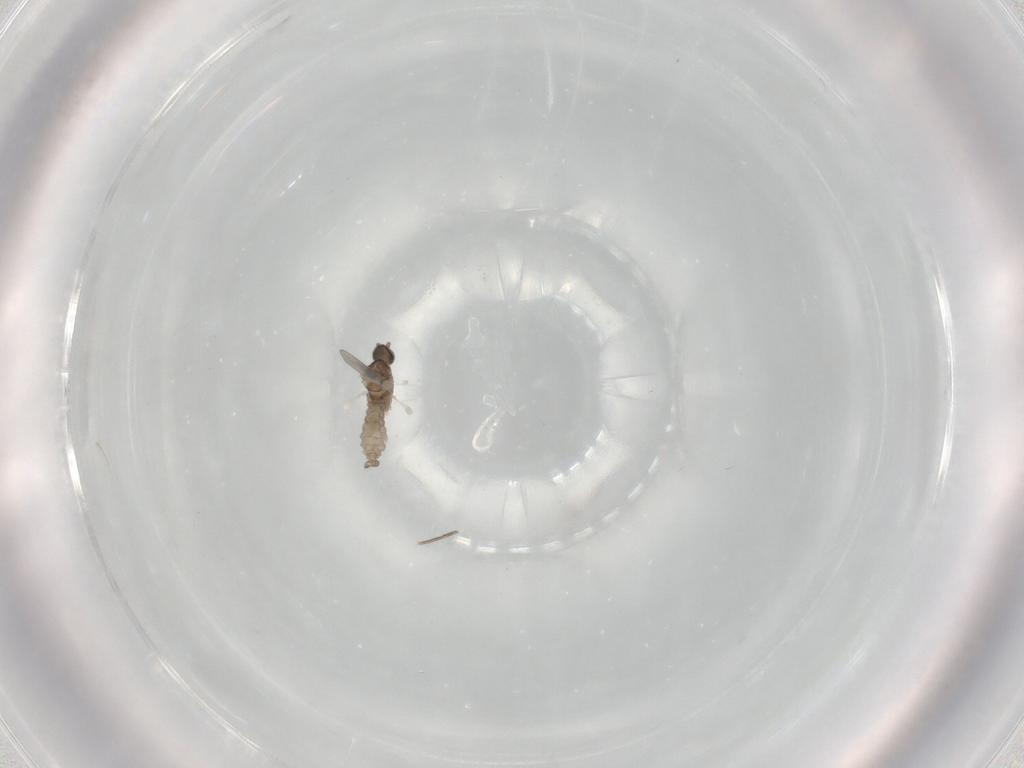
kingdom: Animalia
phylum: Arthropoda
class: Insecta
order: Diptera
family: Phoridae
